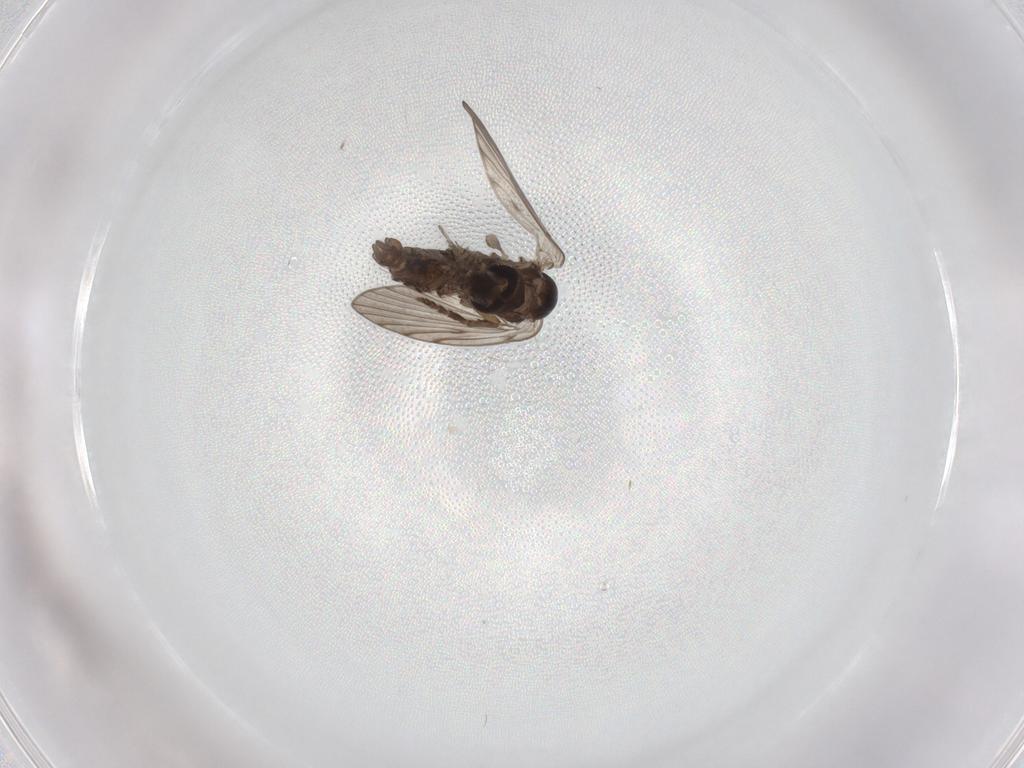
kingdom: Animalia
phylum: Arthropoda
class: Insecta
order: Diptera
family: Psychodidae
